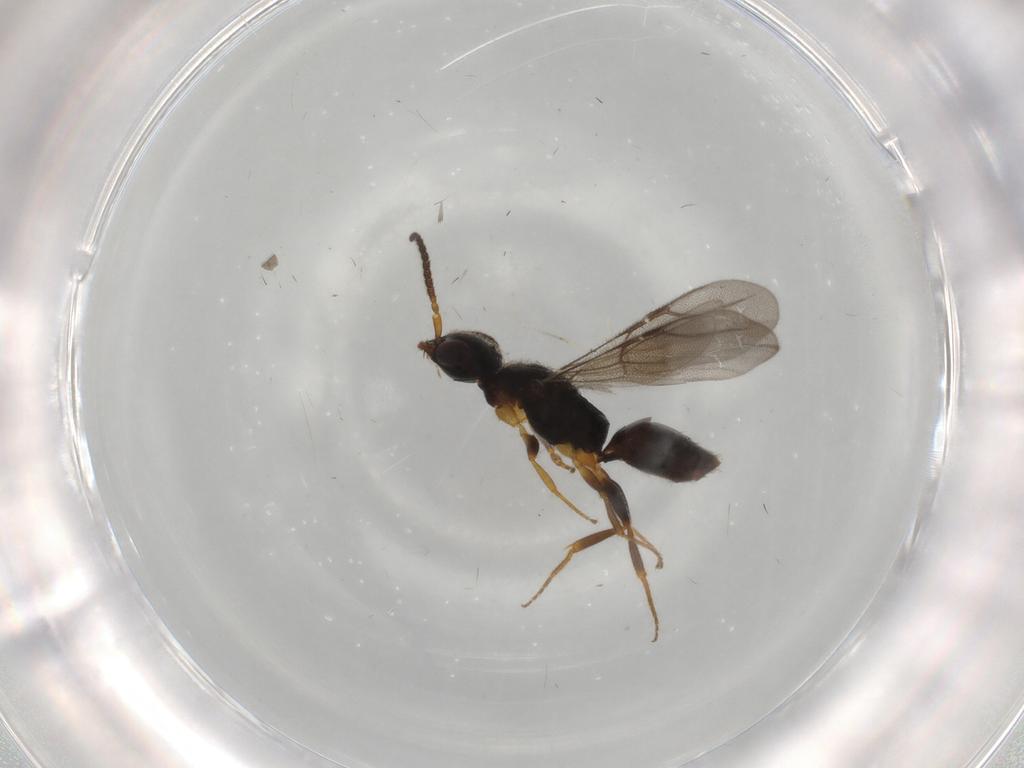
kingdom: Animalia
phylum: Arthropoda
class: Insecta
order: Hymenoptera
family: Bethylidae
